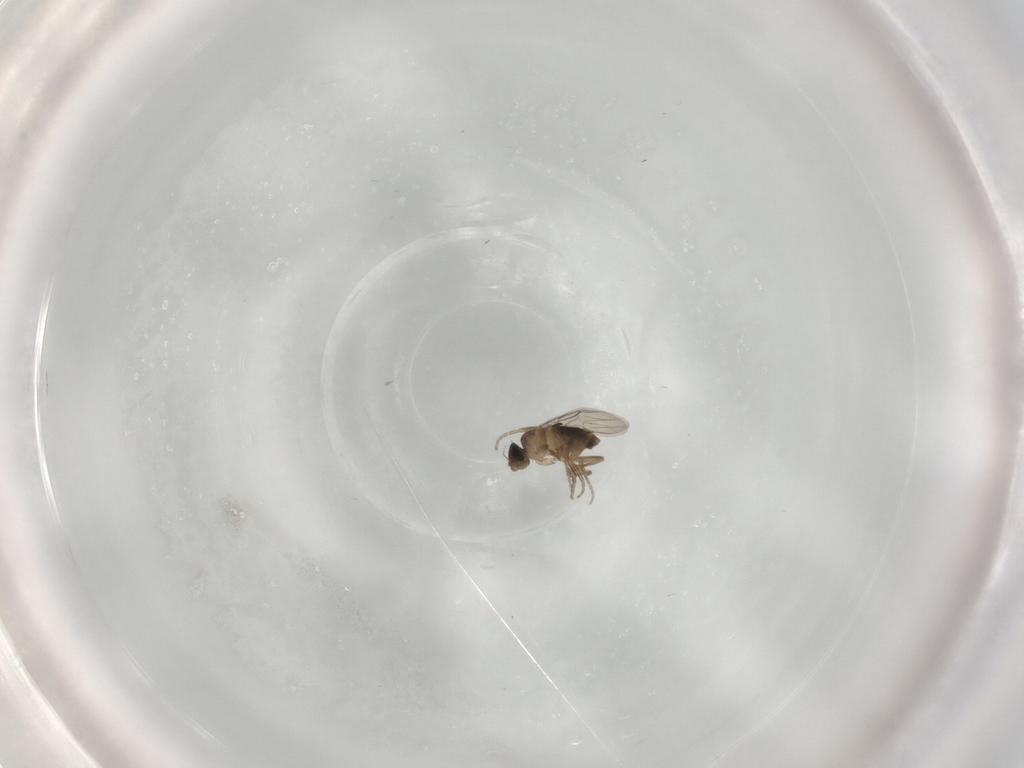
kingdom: Animalia
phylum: Arthropoda
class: Insecta
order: Diptera
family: Phoridae
